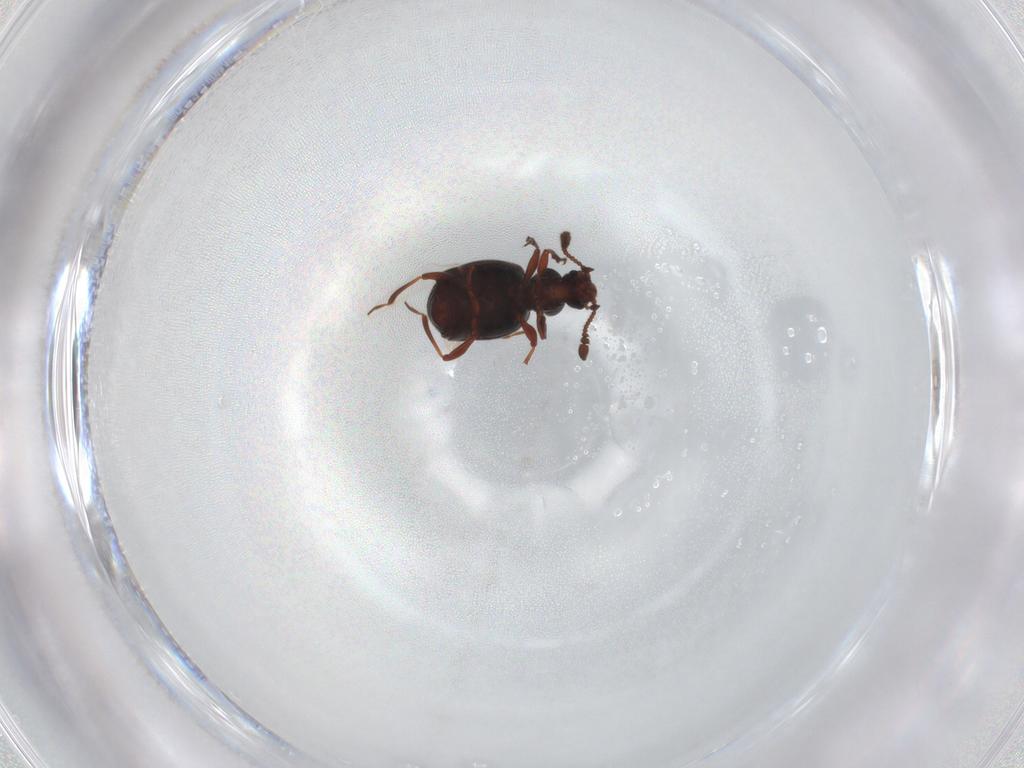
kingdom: Animalia
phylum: Arthropoda
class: Insecta
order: Coleoptera
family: Staphylinidae
